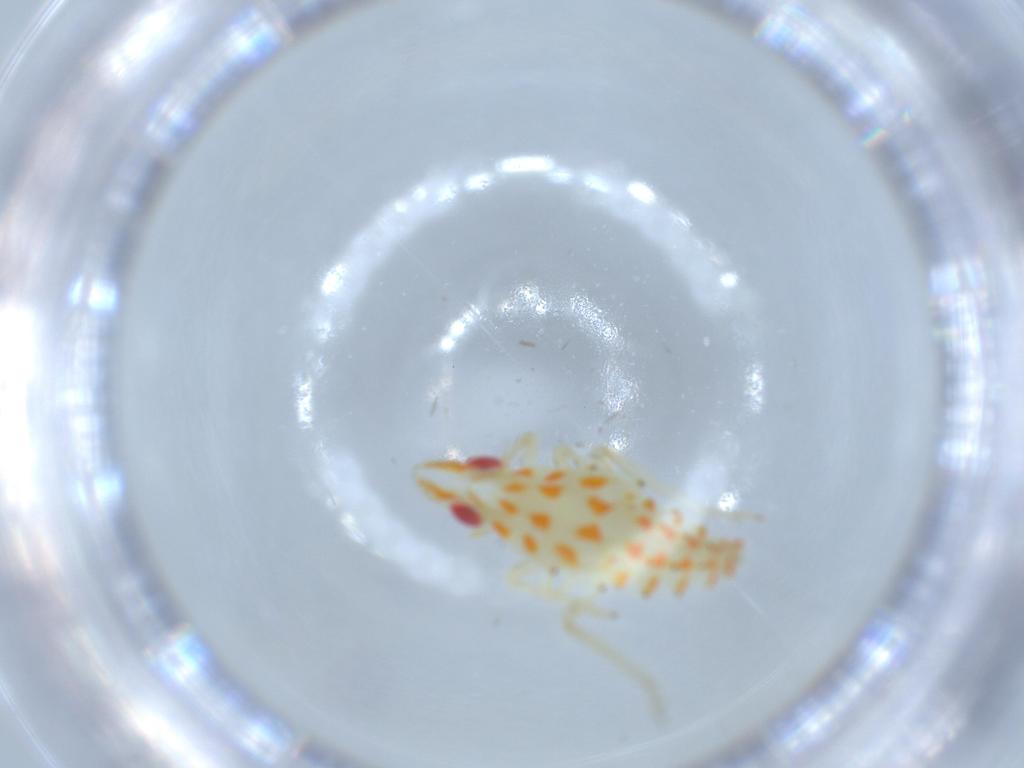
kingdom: Animalia
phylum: Arthropoda
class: Insecta
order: Hemiptera
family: Tropiduchidae
